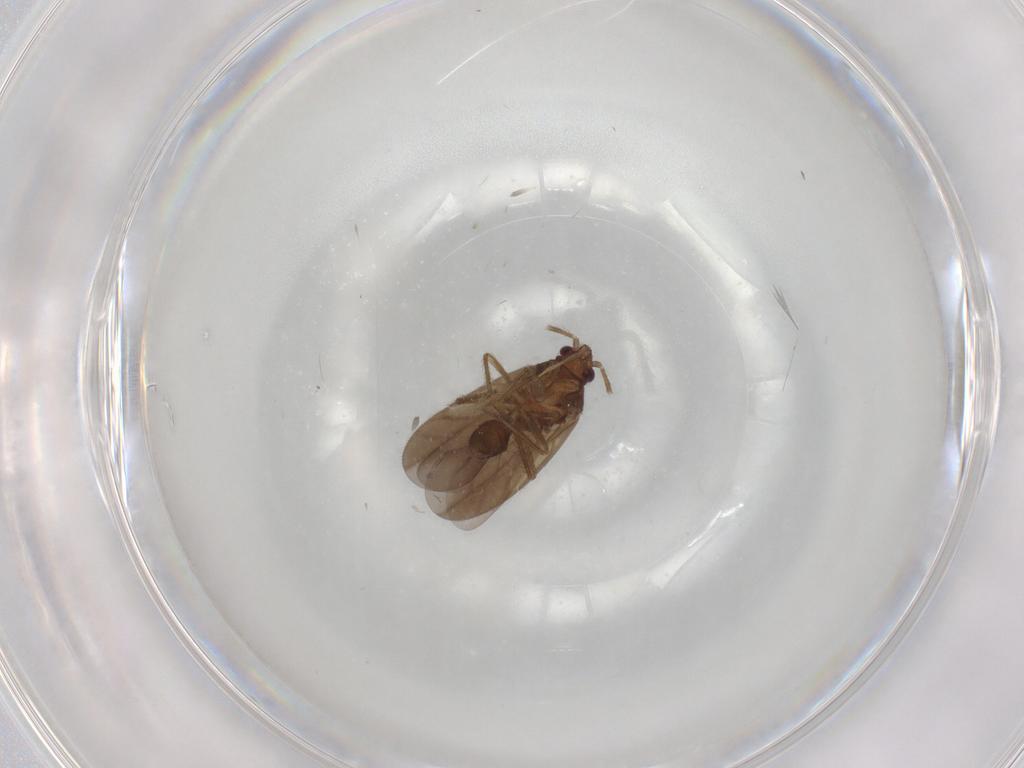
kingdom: Animalia
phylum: Arthropoda
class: Insecta
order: Hemiptera
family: Ceratocombidae
